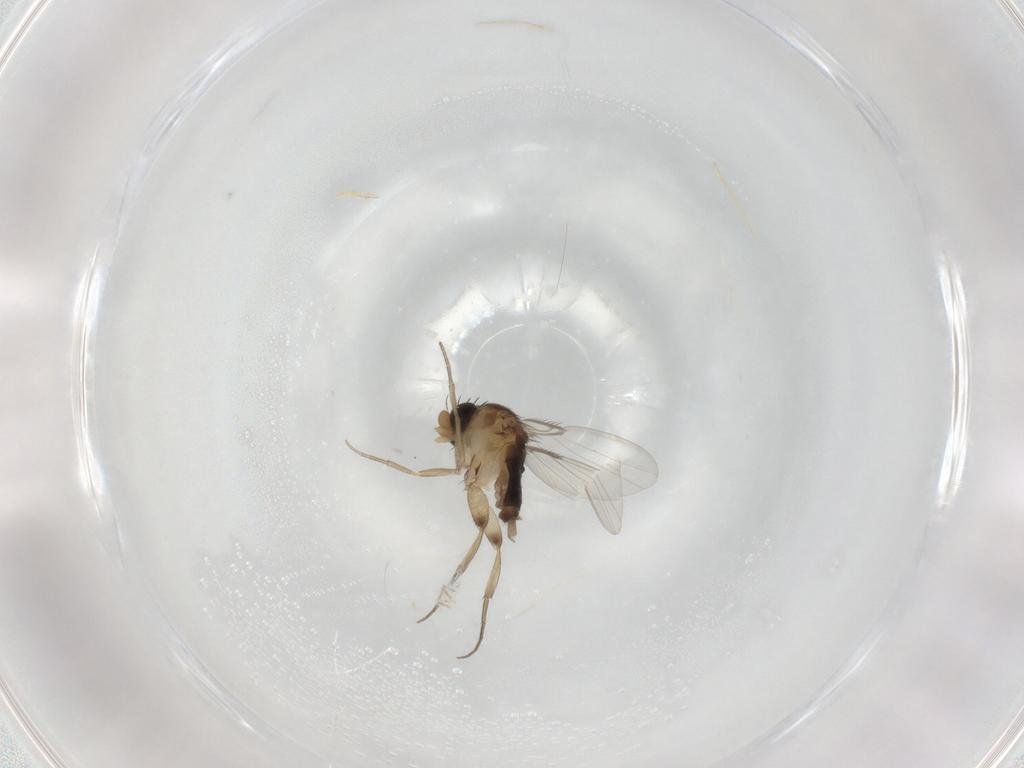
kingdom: Animalia
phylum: Arthropoda
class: Insecta
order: Diptera
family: Phoridae
